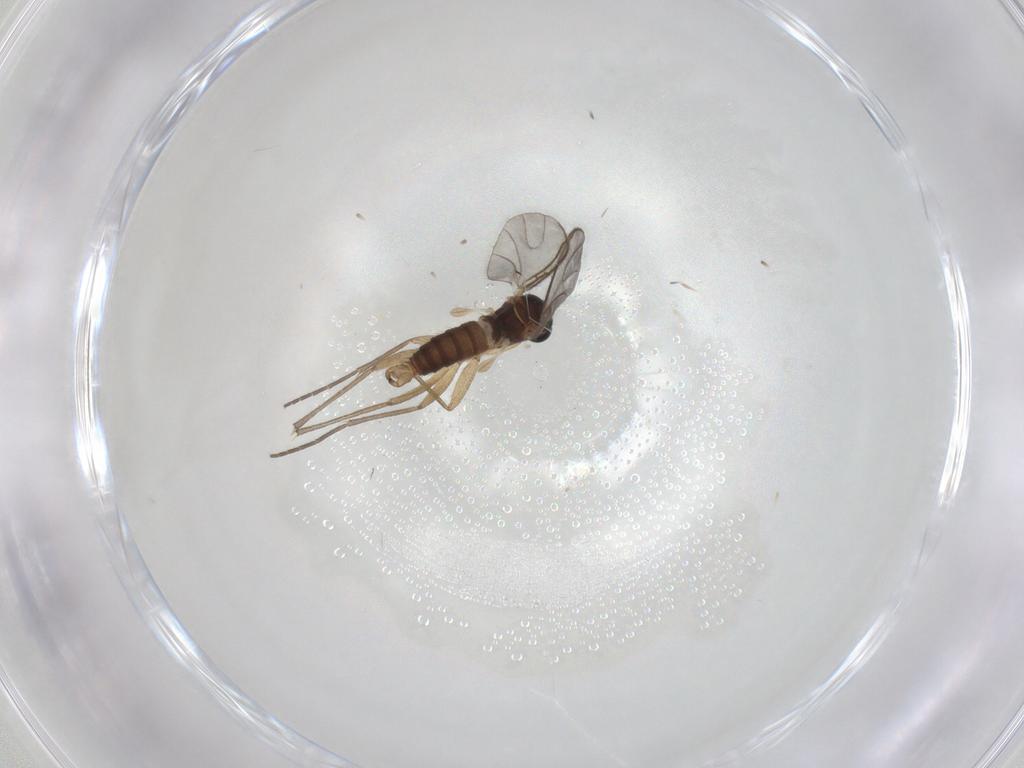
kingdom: Animalia
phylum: Arthropoda
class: Insecta
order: Diptera
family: Sciaridae
